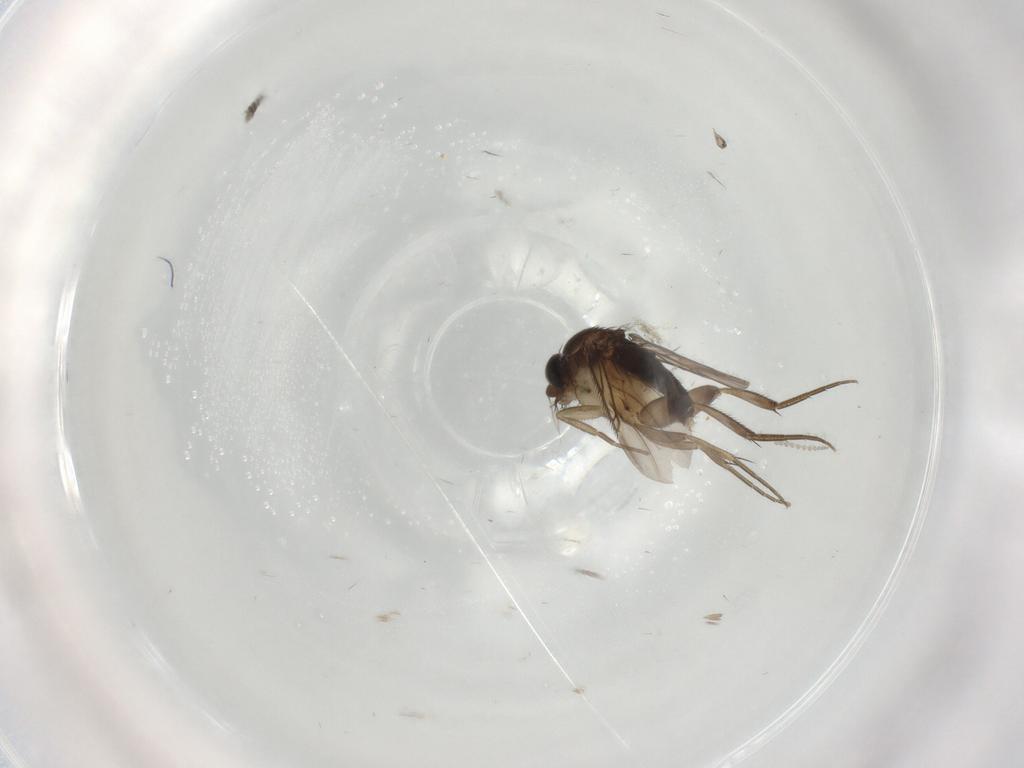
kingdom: Animalia
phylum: Arthropoda
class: Insecta
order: Diptera
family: Phoridae
